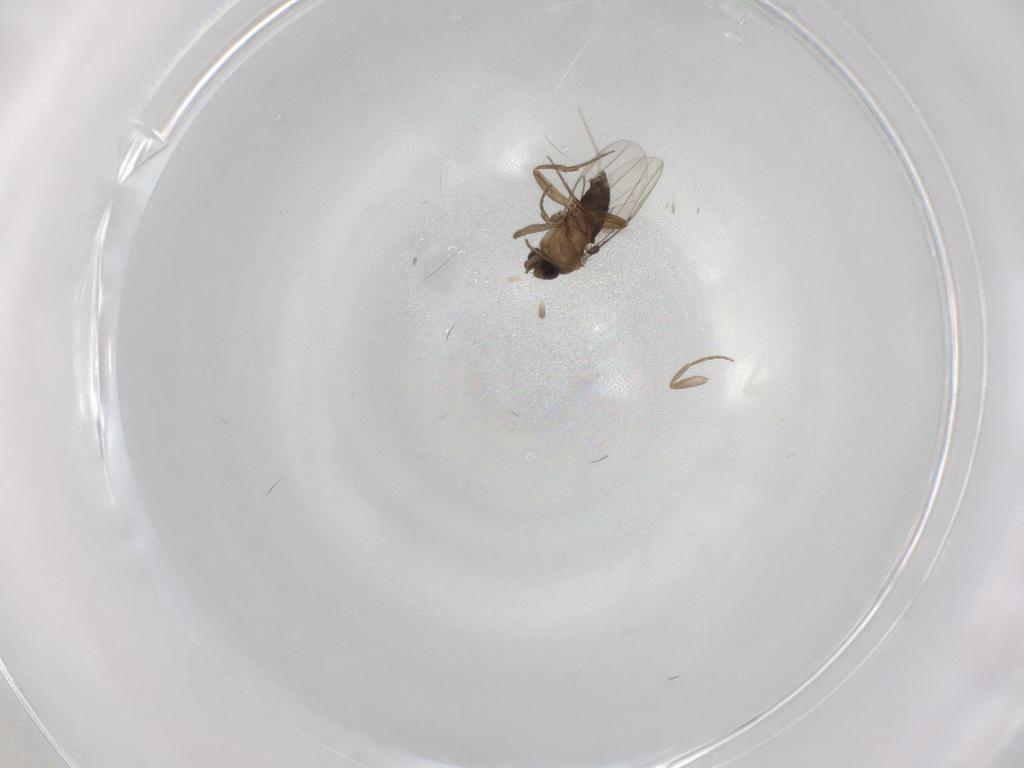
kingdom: Animalia
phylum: Arthropoda
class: Insecta
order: Diptera
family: Phoridae
